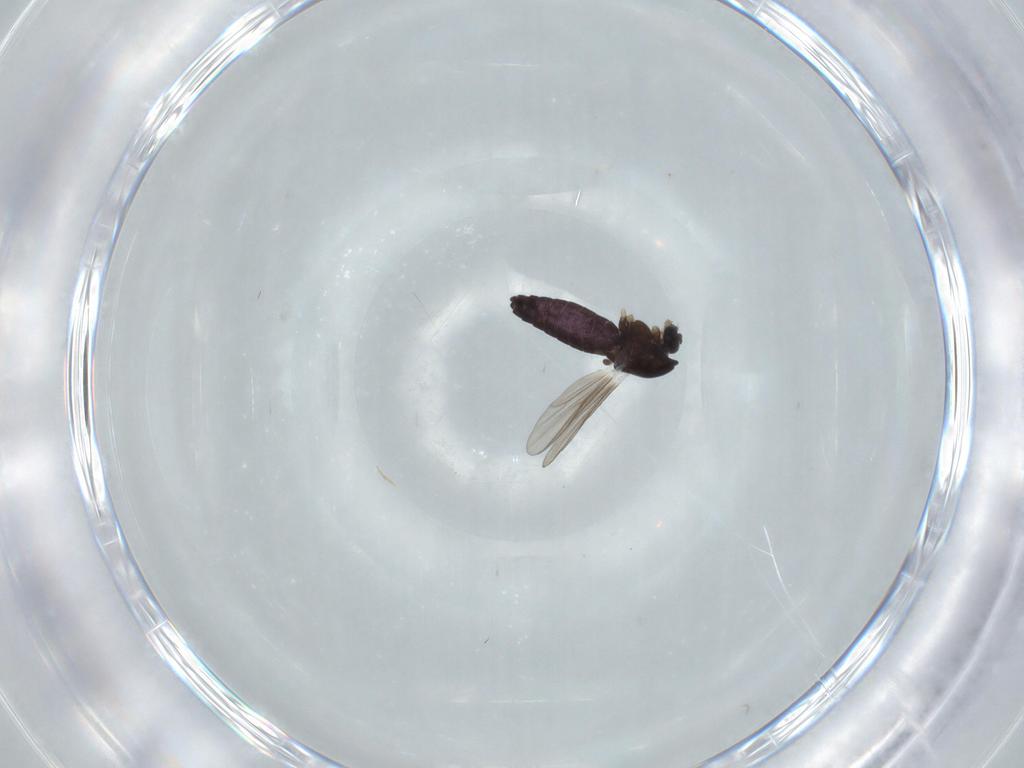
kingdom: Animalia
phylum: Arthropoda
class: Insecta
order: Diptera
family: Chironomidae
